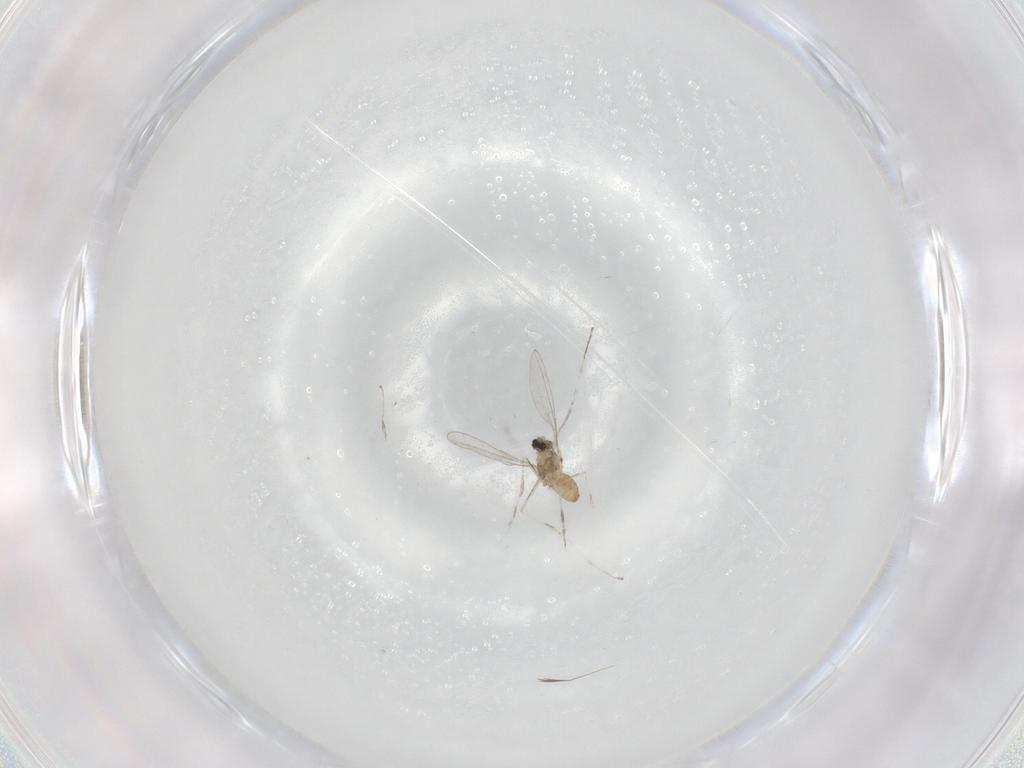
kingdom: Animalia
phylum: Arthropoda
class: Insecta
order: Diptera
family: Cecidomyiidae
